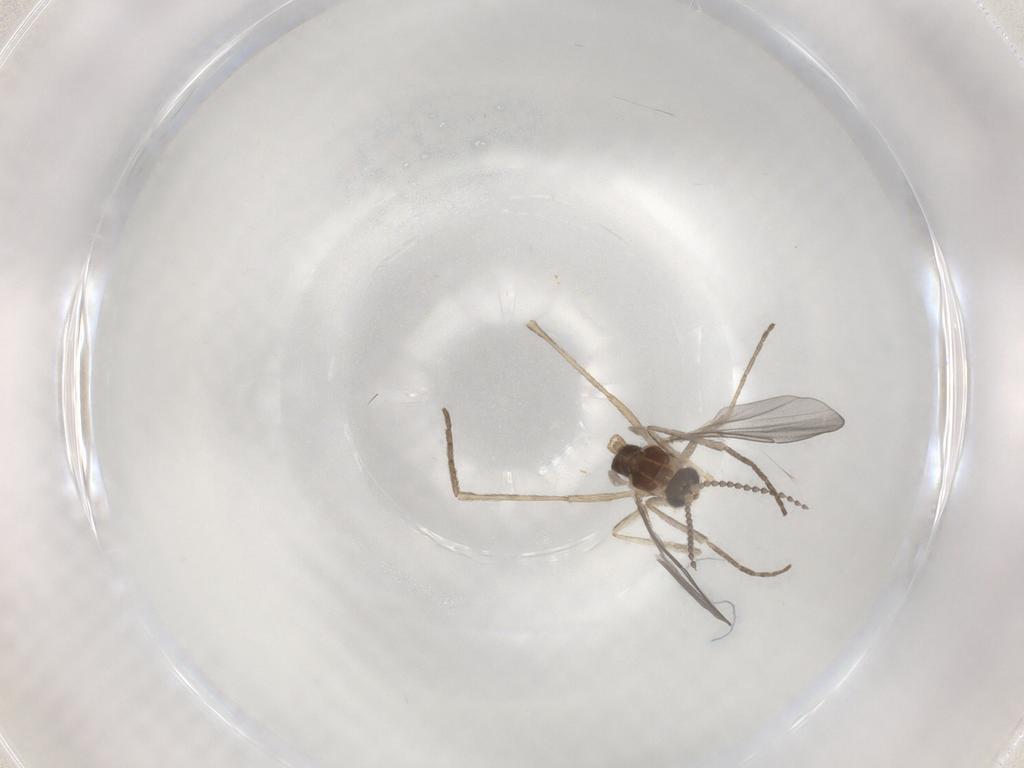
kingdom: Animalia
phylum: Arthropoda
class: Insecta
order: Diptera
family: Cecidomyiidae
